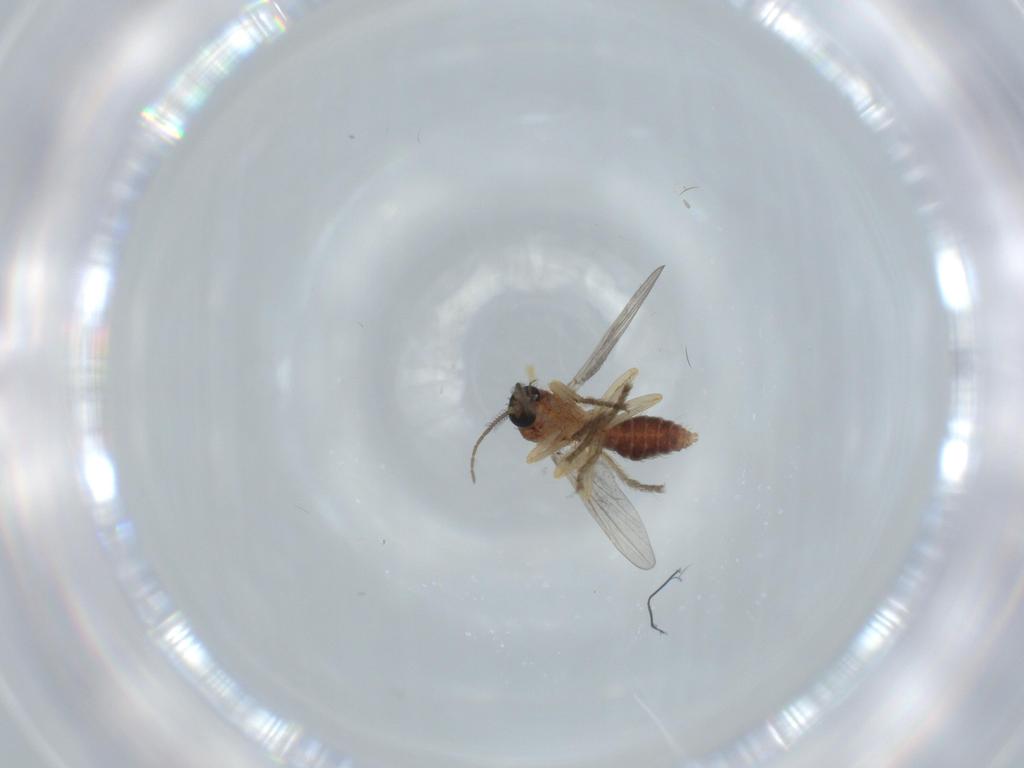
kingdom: Animalia
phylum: Arthropoda
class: Insecta
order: Diptera
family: Ceratopogonidae
